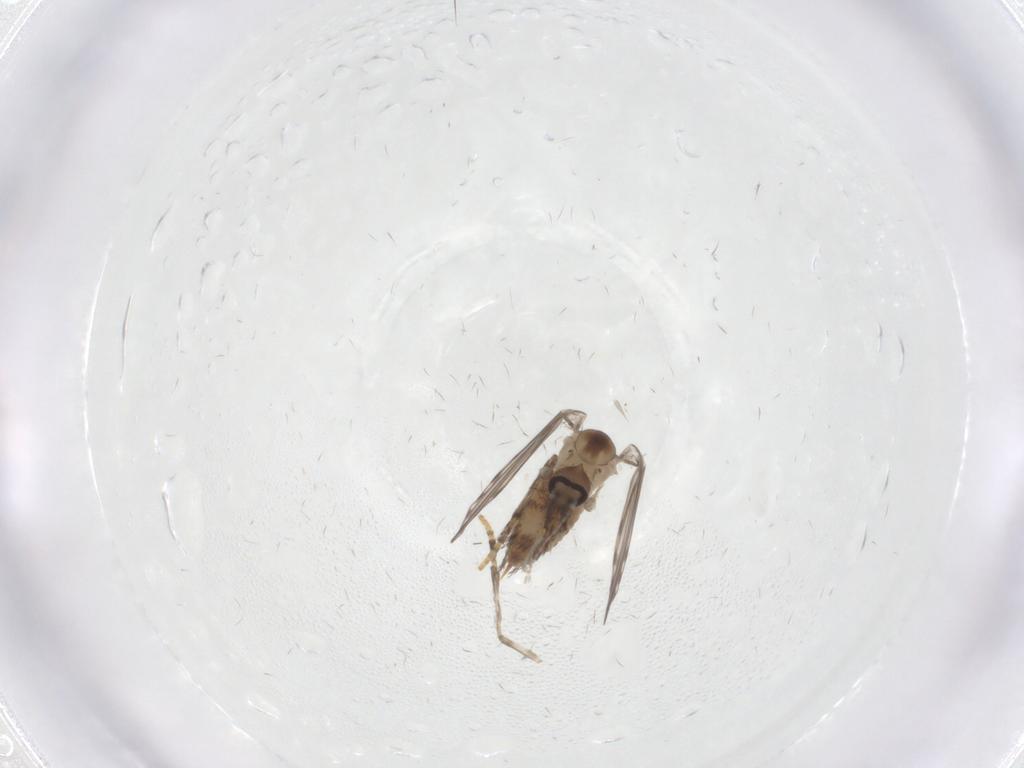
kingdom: Animalia
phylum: Arthropoda
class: Insecta
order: Diptera
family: Psychodidae
